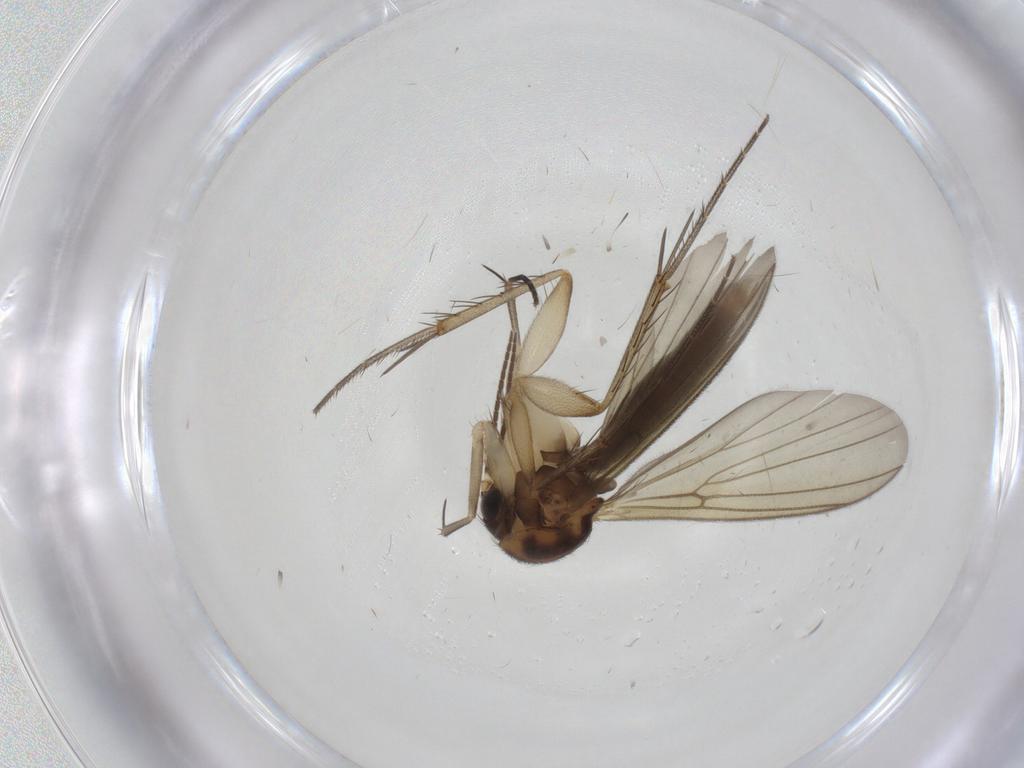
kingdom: Animalia
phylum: Arthropoda
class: Insecta
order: Diptera
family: Mycetophilidae
